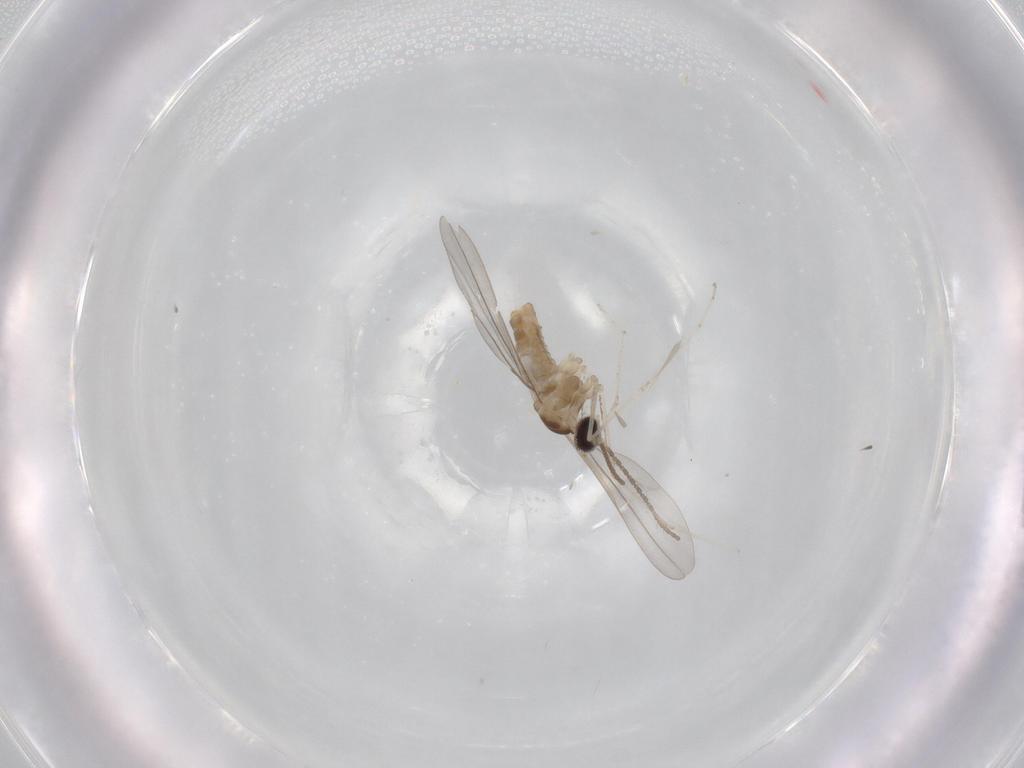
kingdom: Animalia
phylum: Arthropoda
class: Insecta
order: Diptera
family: Cecidomyiidae
